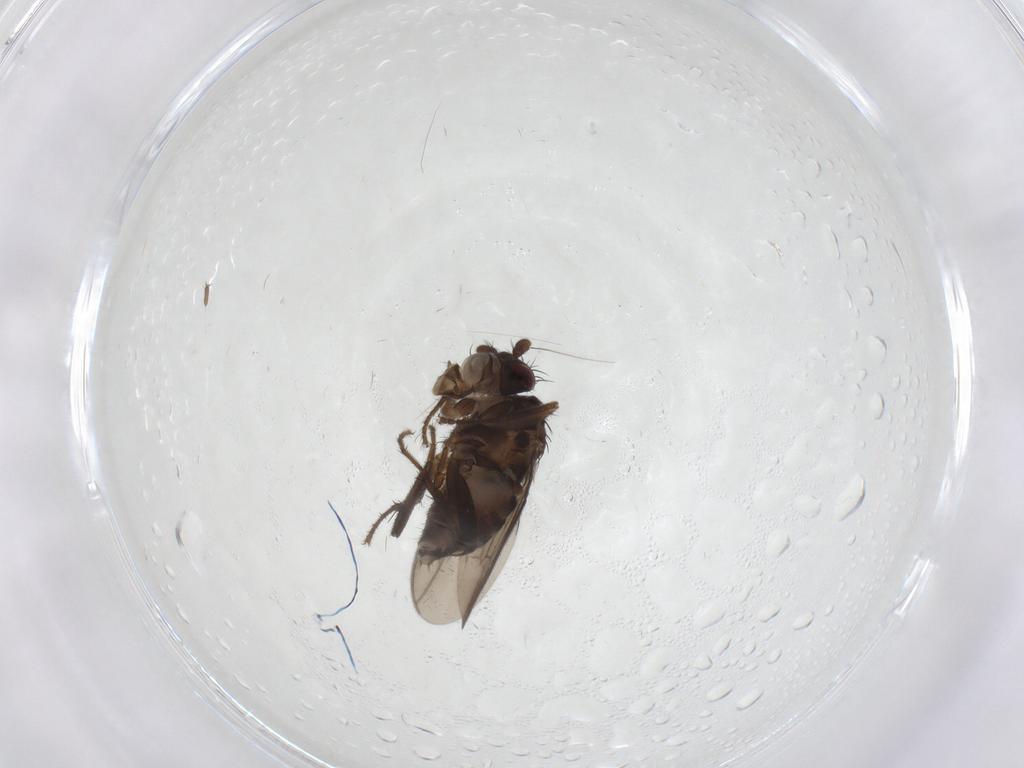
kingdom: Animalia
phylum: Arthropoda
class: Insecta
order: Diptera
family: Sphaeroceridae
